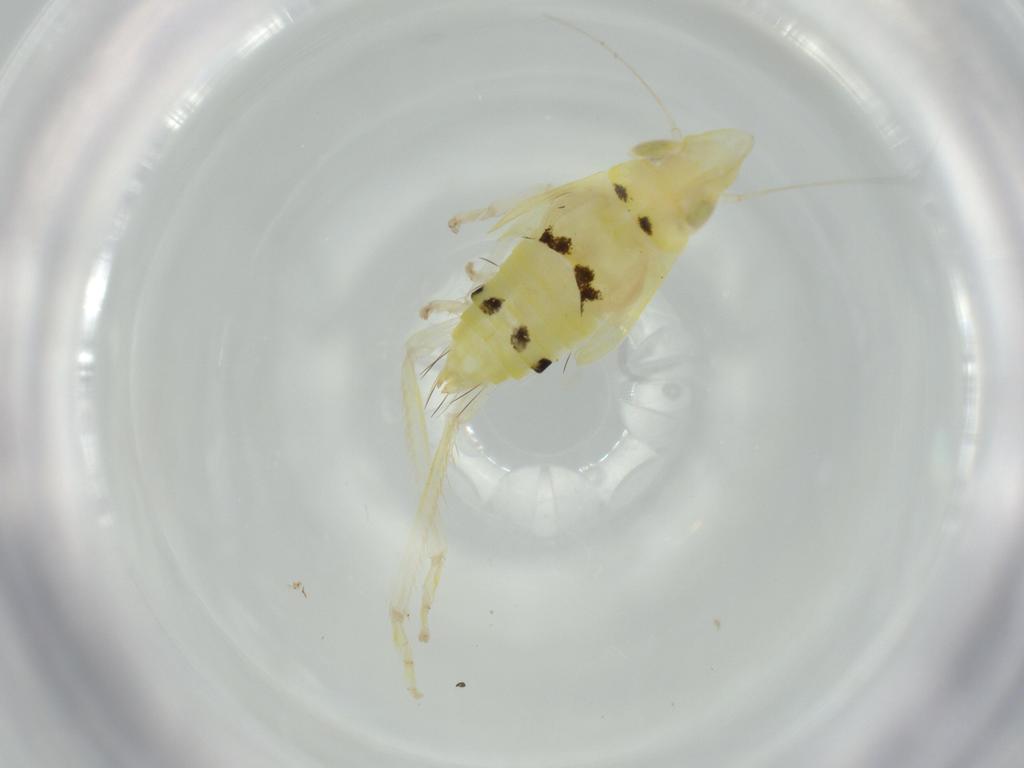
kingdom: Animalia
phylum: Arthropoda
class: Insecta
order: Hemiptera
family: Cicadellidae
